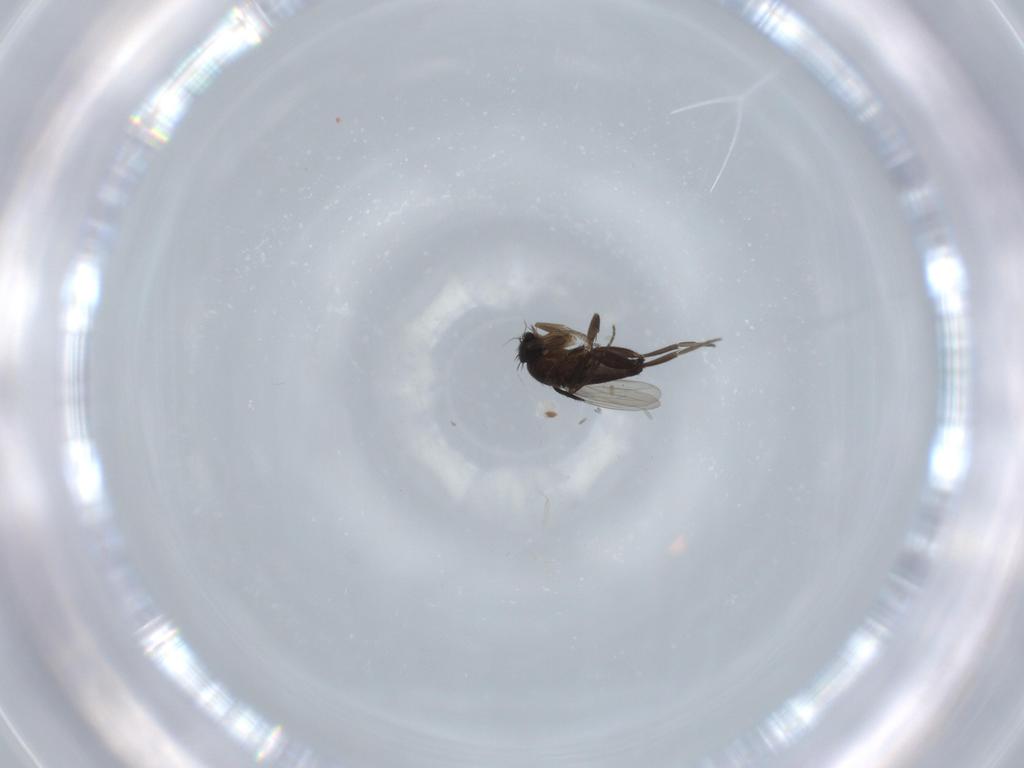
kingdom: Animalia
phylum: Arthropoda
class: Insecta
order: Diptera
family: Phoridae
